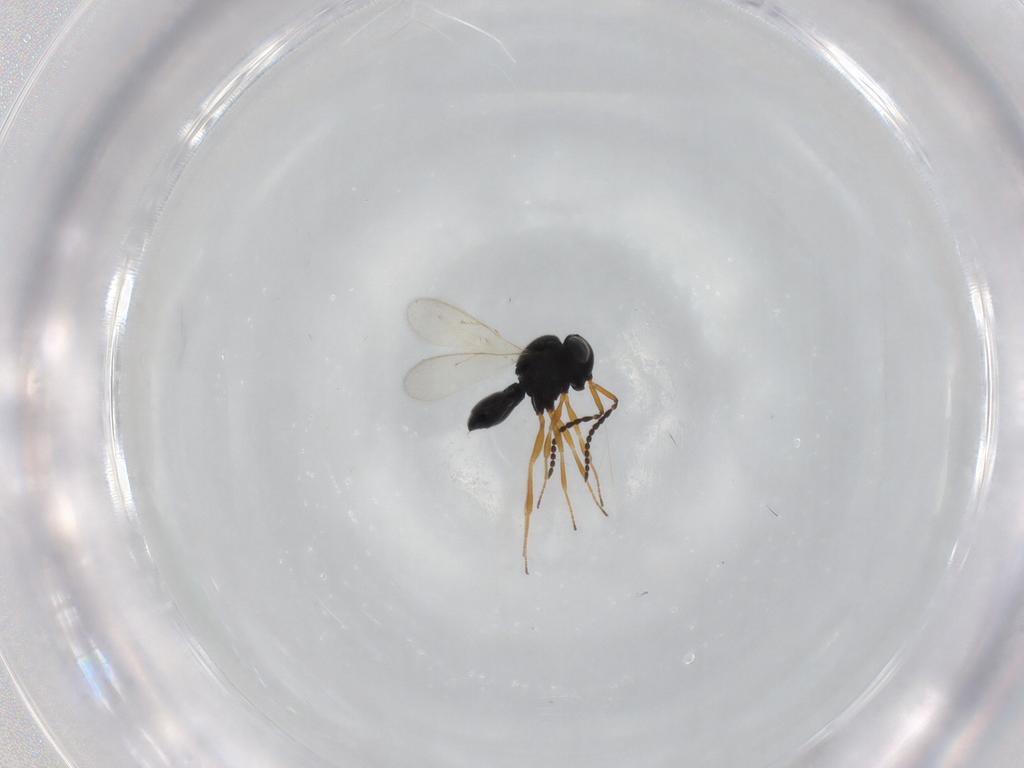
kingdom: Animalia
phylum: Arthropoda
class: Insecta
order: Hymenoptera
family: Scelionidae
